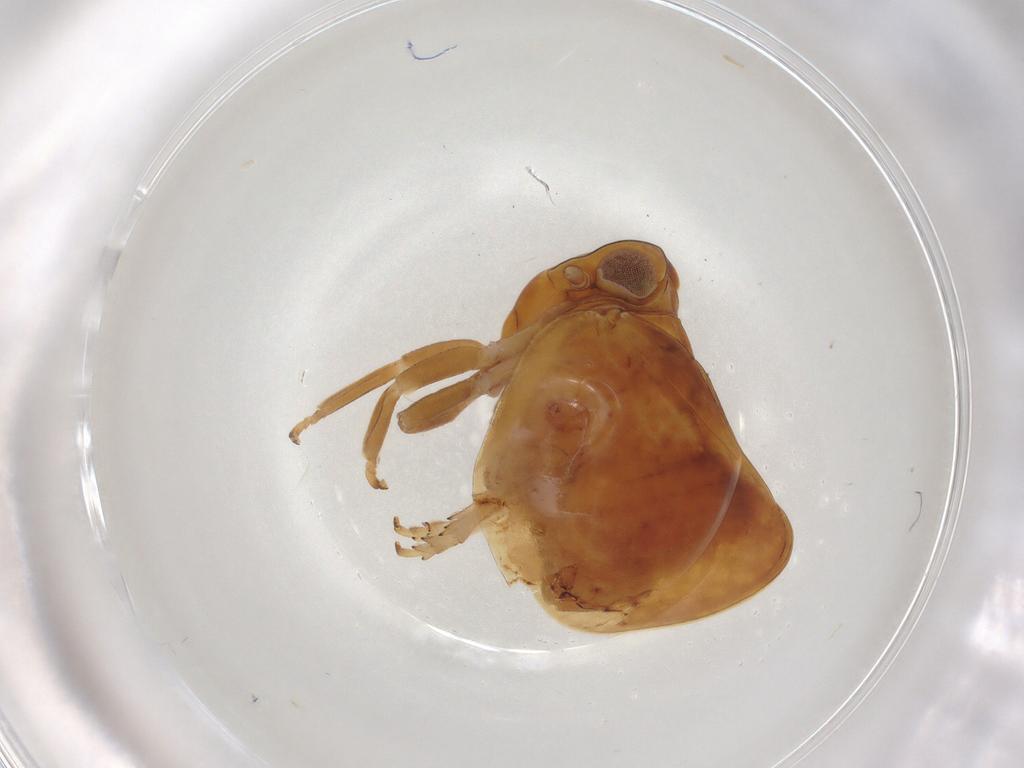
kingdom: Animalia
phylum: Arthropoda
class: Insecta
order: Hemiptera
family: Nogodinidae
